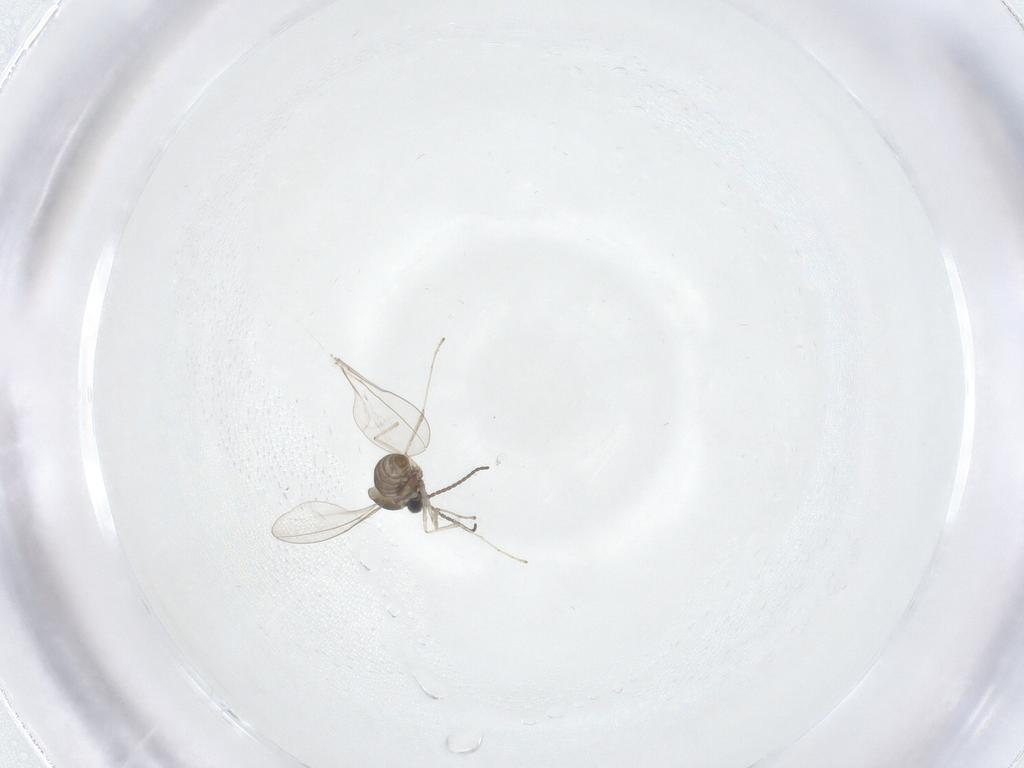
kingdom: Animalia
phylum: Arthropoda
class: Insecta
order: Diptera
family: Cecidomyiidae
